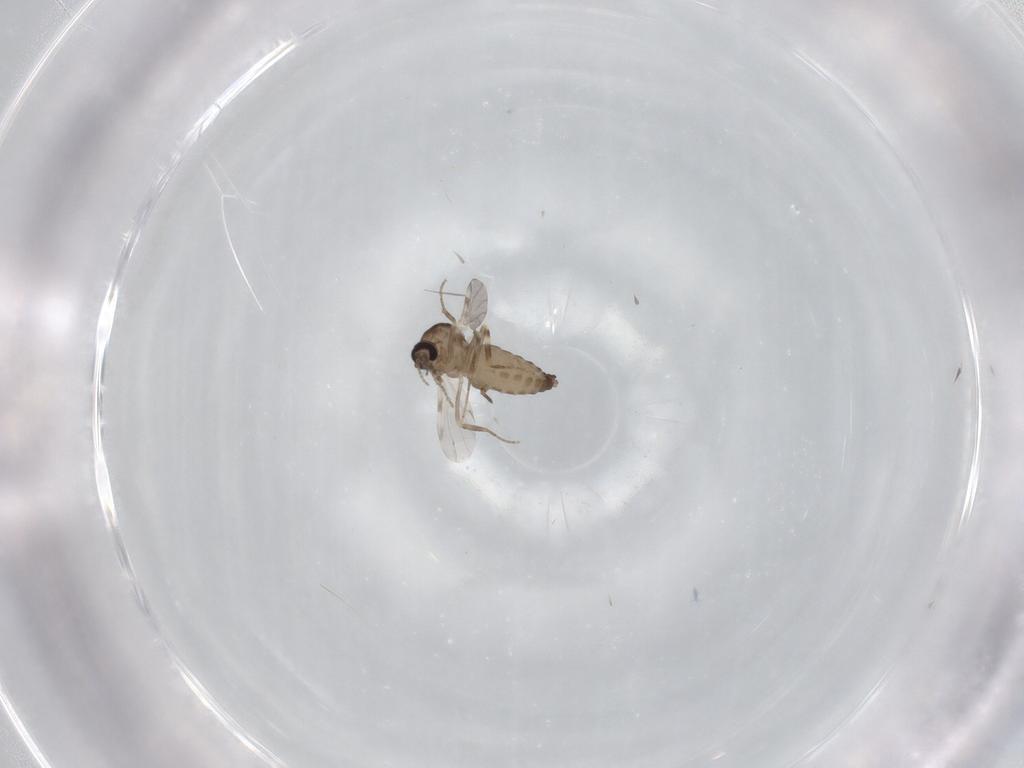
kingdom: Animalia
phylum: Arthropoda
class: Insecta
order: Diptera
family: Ceratopogonidae
